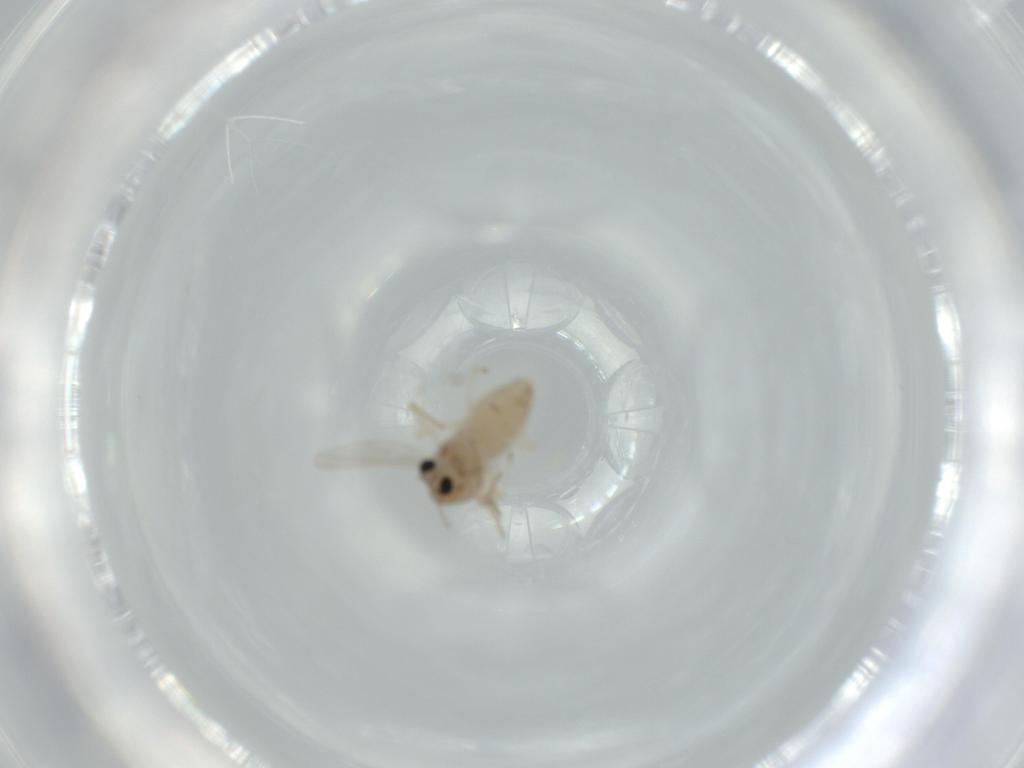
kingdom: Animalia
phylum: Arthropoda
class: Insecta
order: Diptera
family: Chironomidae
